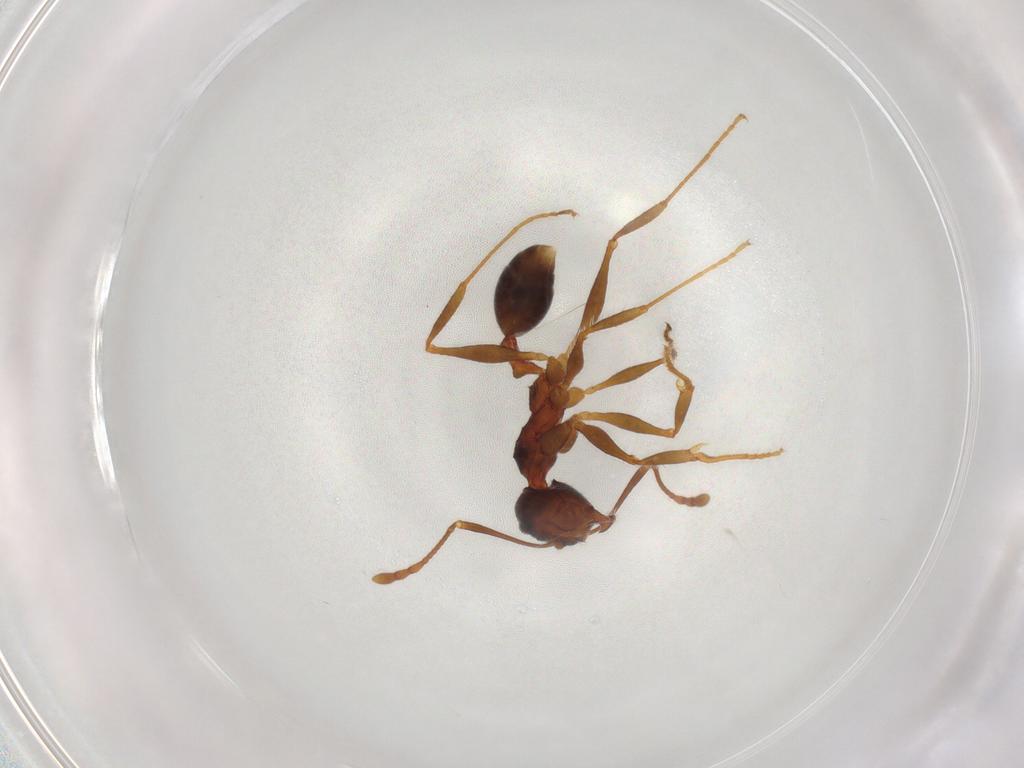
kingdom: Animalia
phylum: Arthropoda
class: Insecta
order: Hymenoptera
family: Formicidae
